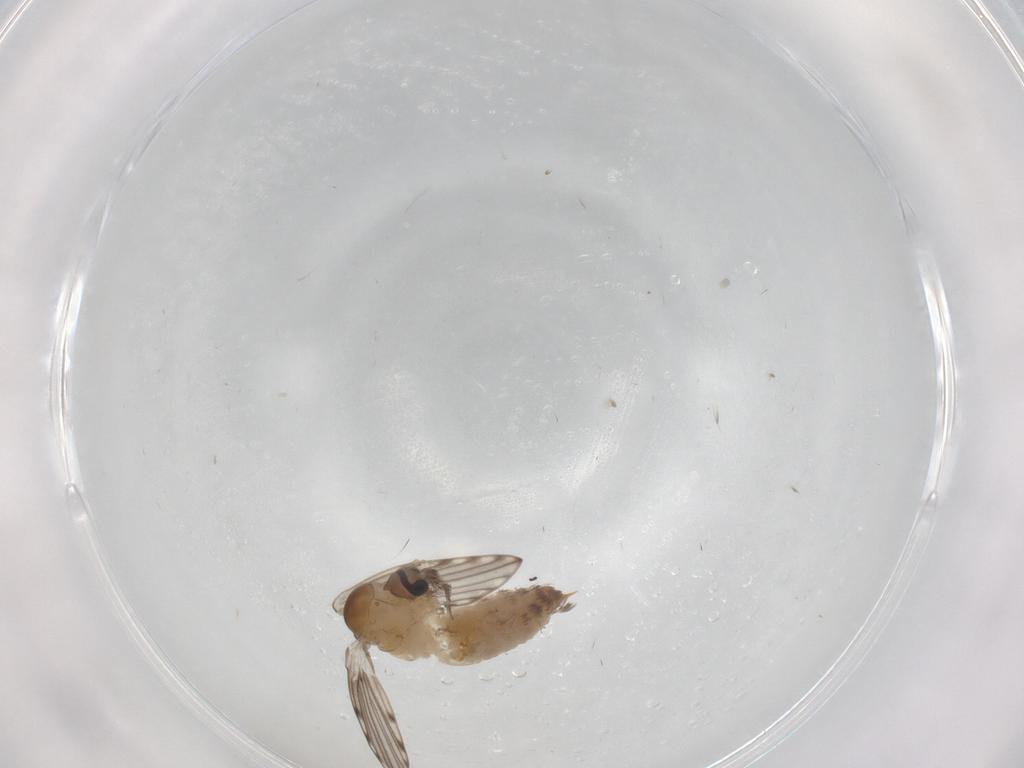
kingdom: Animalia
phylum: Arthropoda
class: Insecta
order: Diptera
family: Psychodidae
